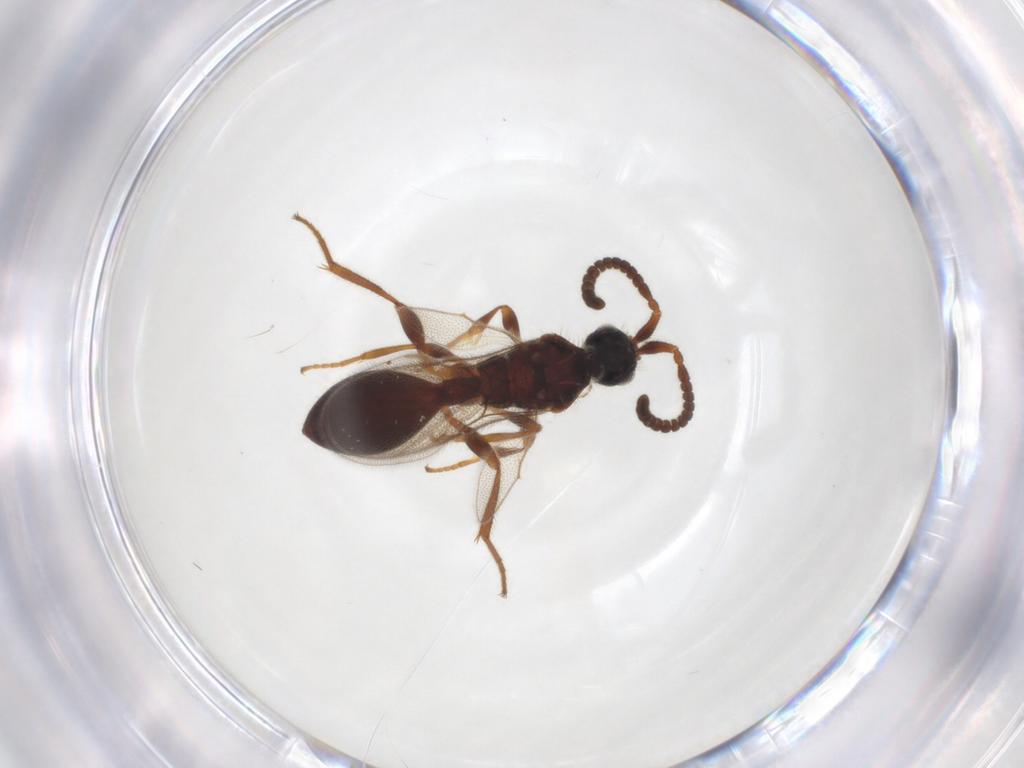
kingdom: Animalia
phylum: Arthropoda
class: Insecta
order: Hymenoptera
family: Diapriidae
